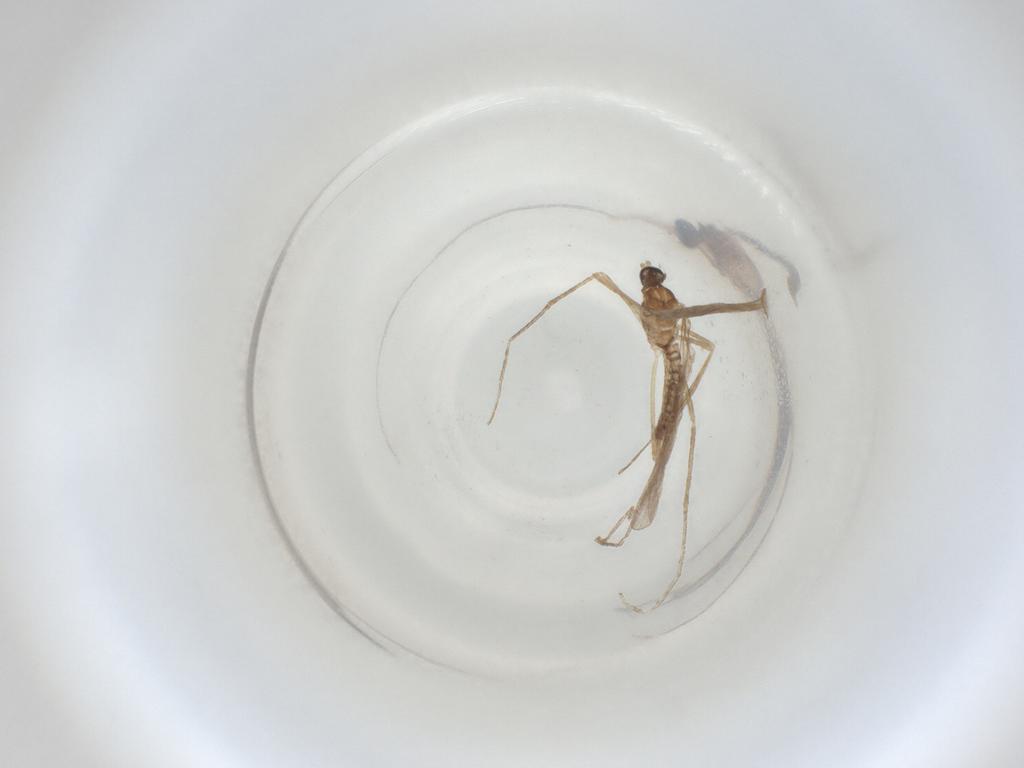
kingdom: Animalia
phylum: Arthropoda
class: Insecta
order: Diptera
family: Cecidomyiidae
